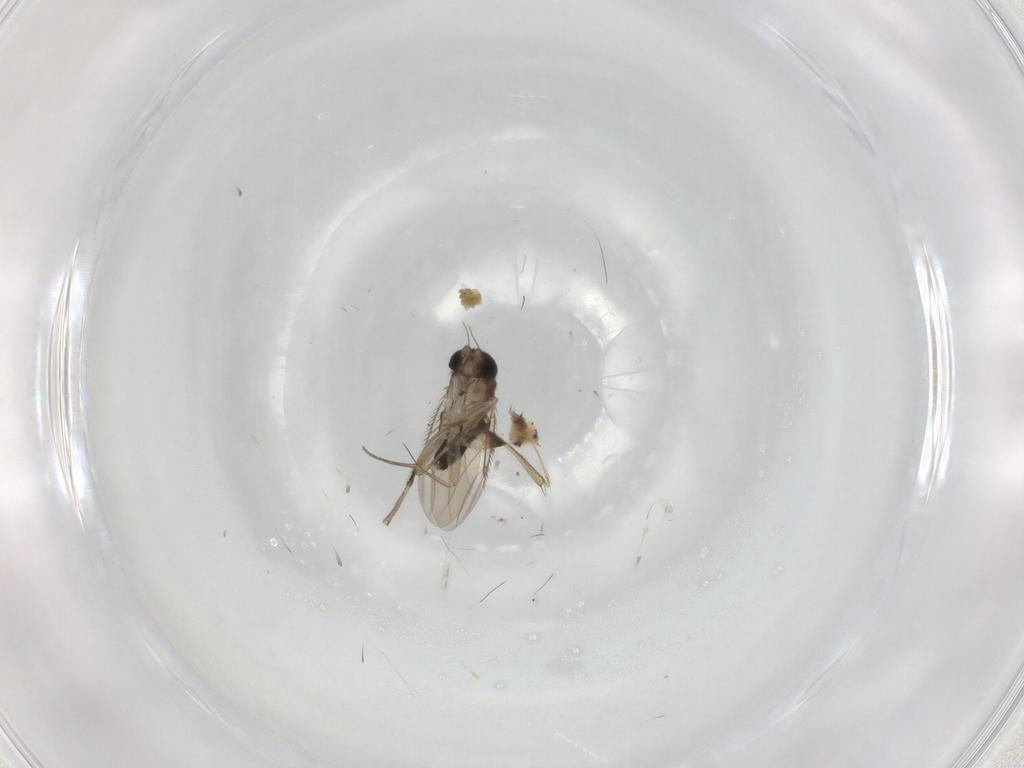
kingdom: Animalia
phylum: Arthropoda
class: Insecta
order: Diptera
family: Phoridae
